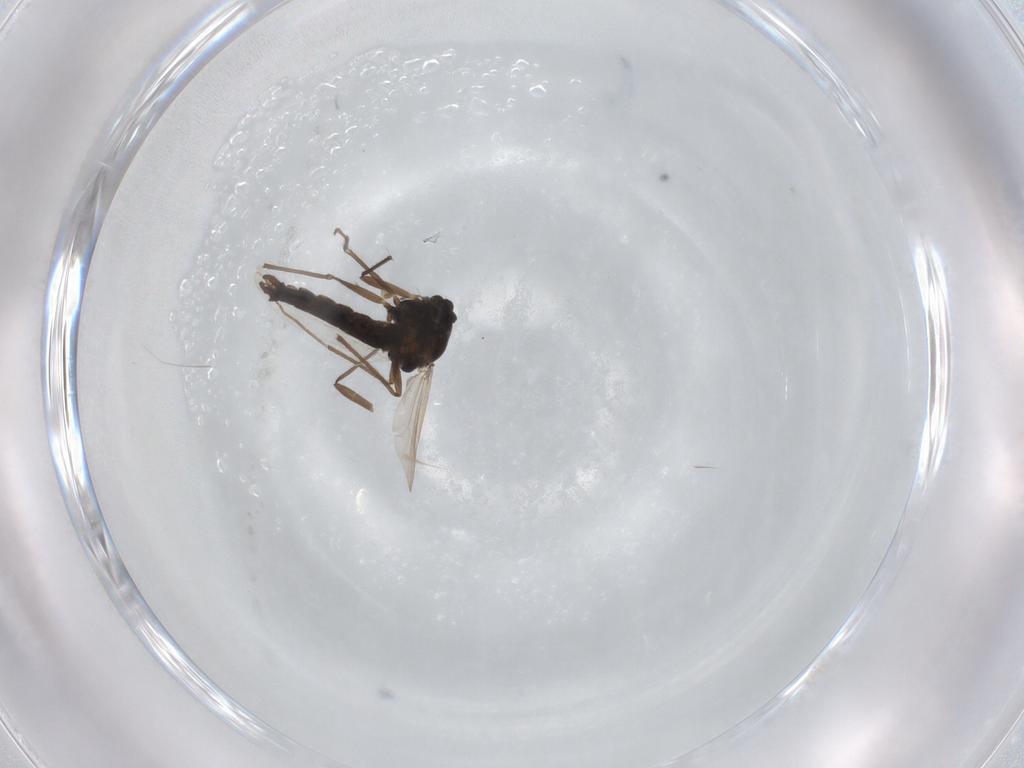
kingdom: Animalia
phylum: Arthropoda
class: Insecta
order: Diptera
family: Chironomidae
